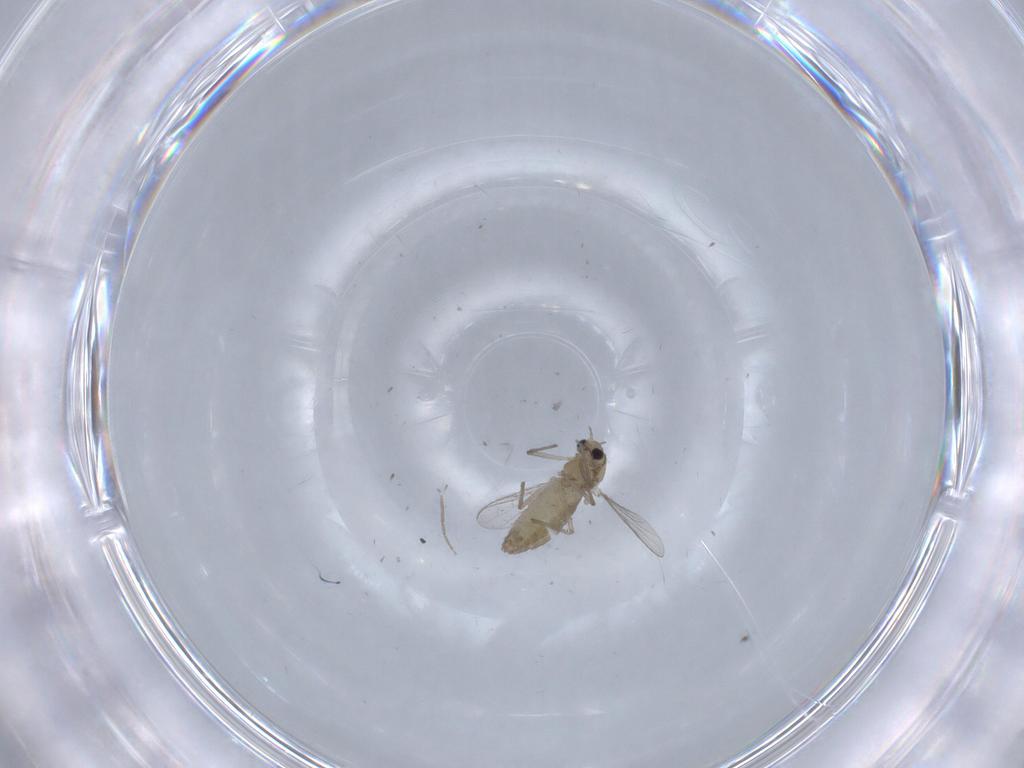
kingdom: Animalia
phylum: Arthropoda
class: Insecta
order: Diptera
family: Chironomidae
